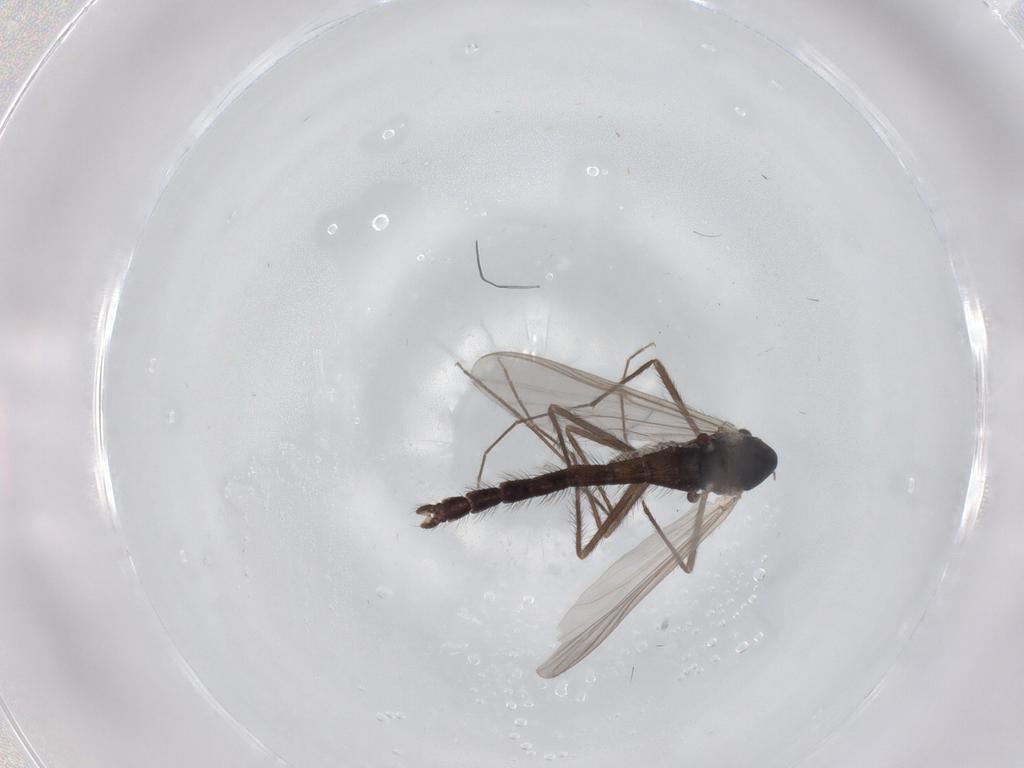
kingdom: Animalia
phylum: Arthropoda
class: Insecta
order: Diptera
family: Chironomidae
